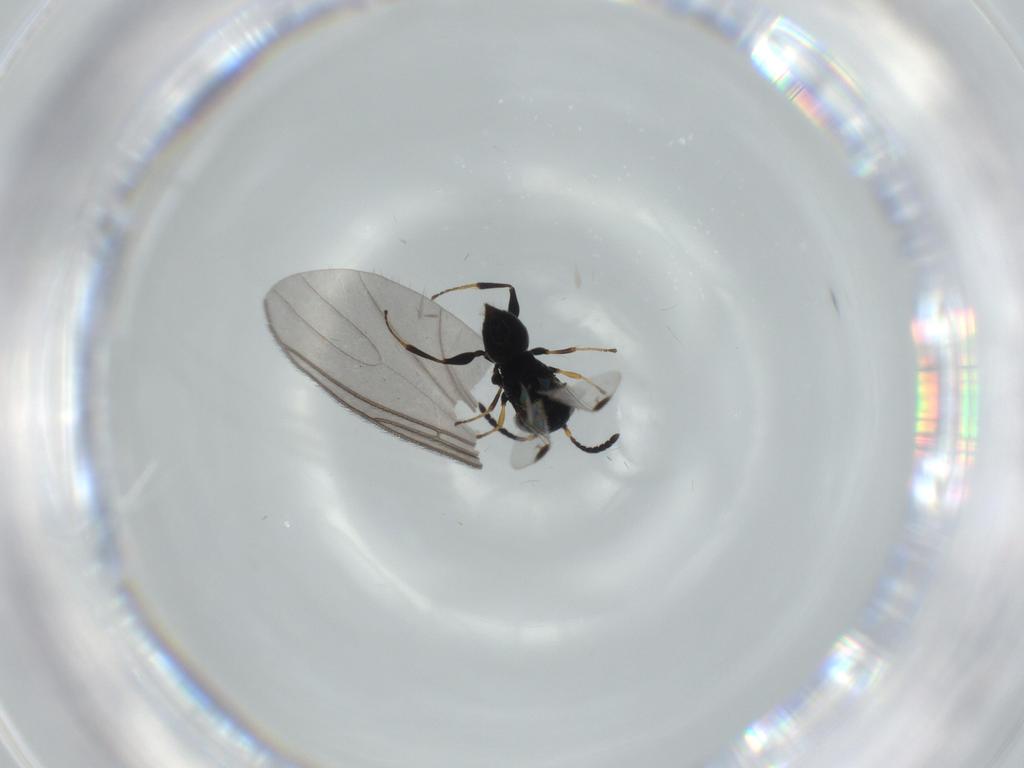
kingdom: Animalia
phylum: Arthropoda
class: Insecta
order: Hymenoptera
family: Dryinidae
